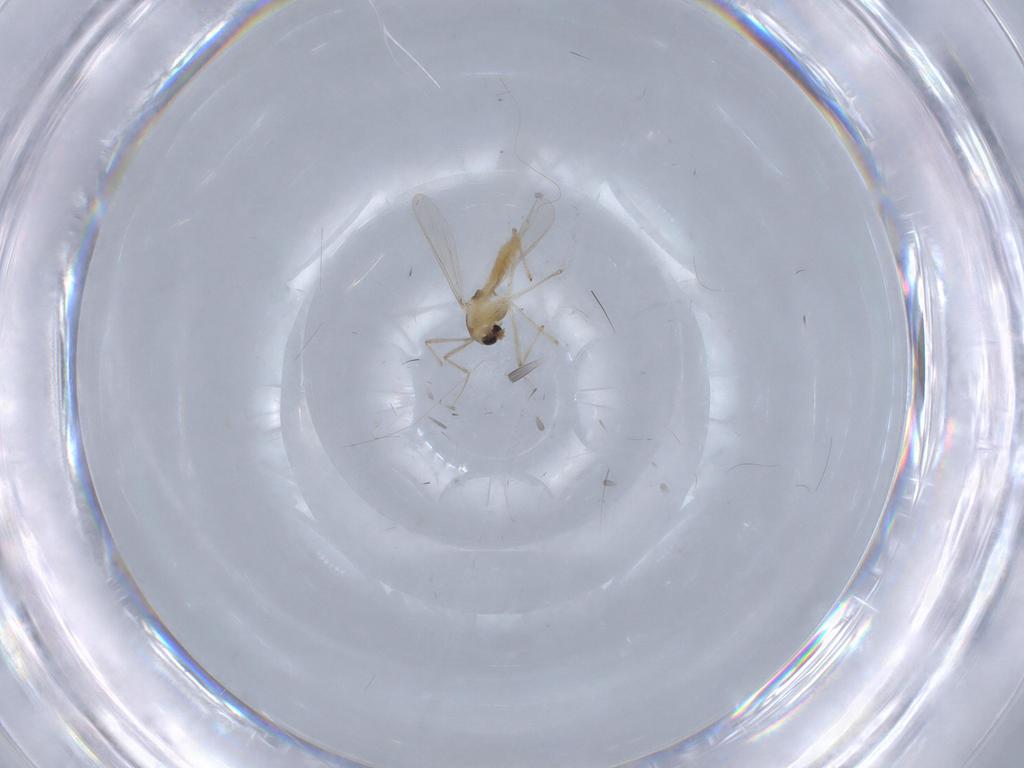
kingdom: Animalia
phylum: Arthropoda
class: Insecta
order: Diptera
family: Chironomidae
